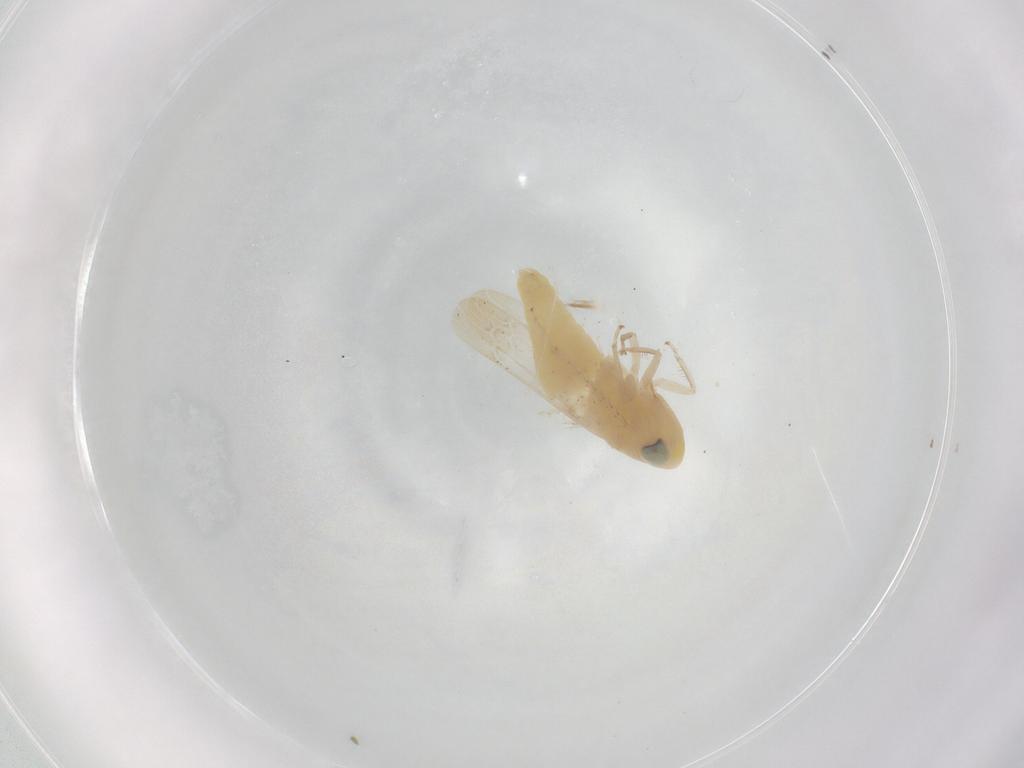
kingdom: Animalia
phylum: Arthropoda
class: Insecta
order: Hemiptera
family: Cicadellidae
